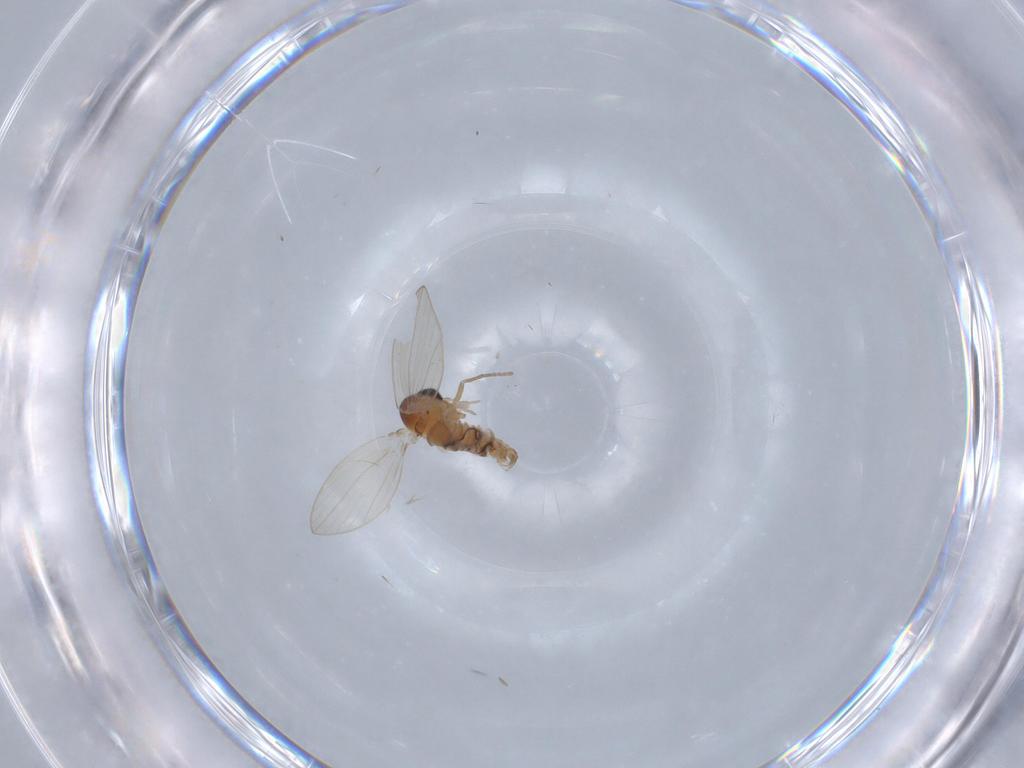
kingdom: Animalia
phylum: Arthropoda
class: Insecta
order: Diptera
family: Psychodidae
